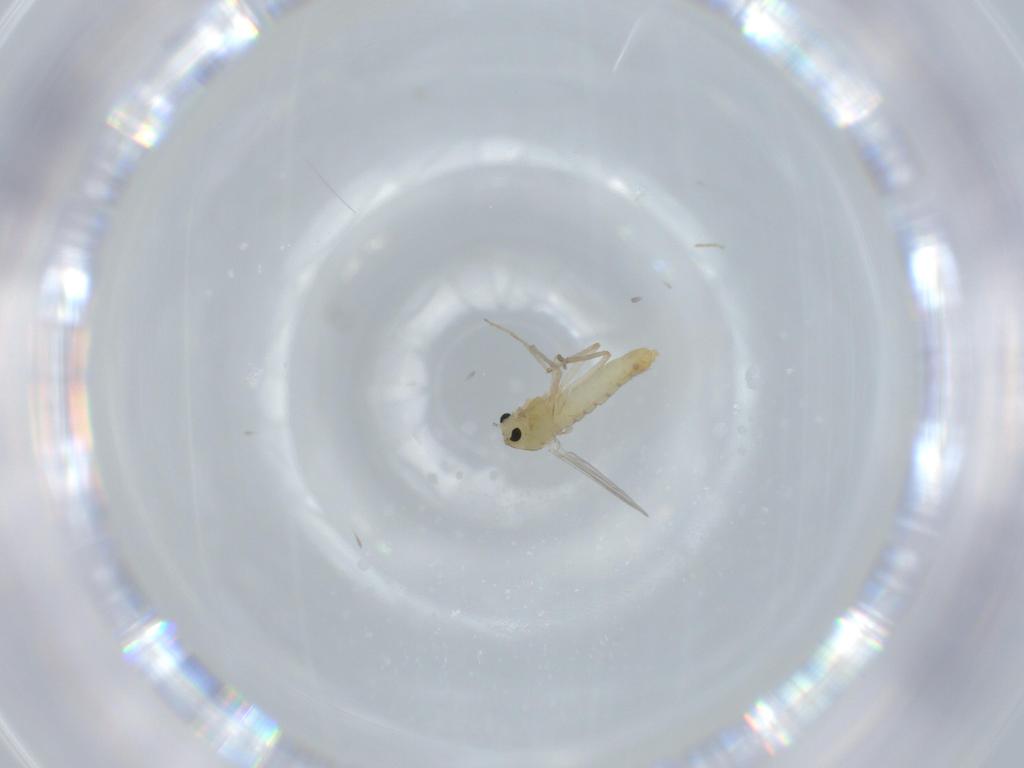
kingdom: Animalia
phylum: Arthropoda
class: Insecta
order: Diptera
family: Chironomidae
